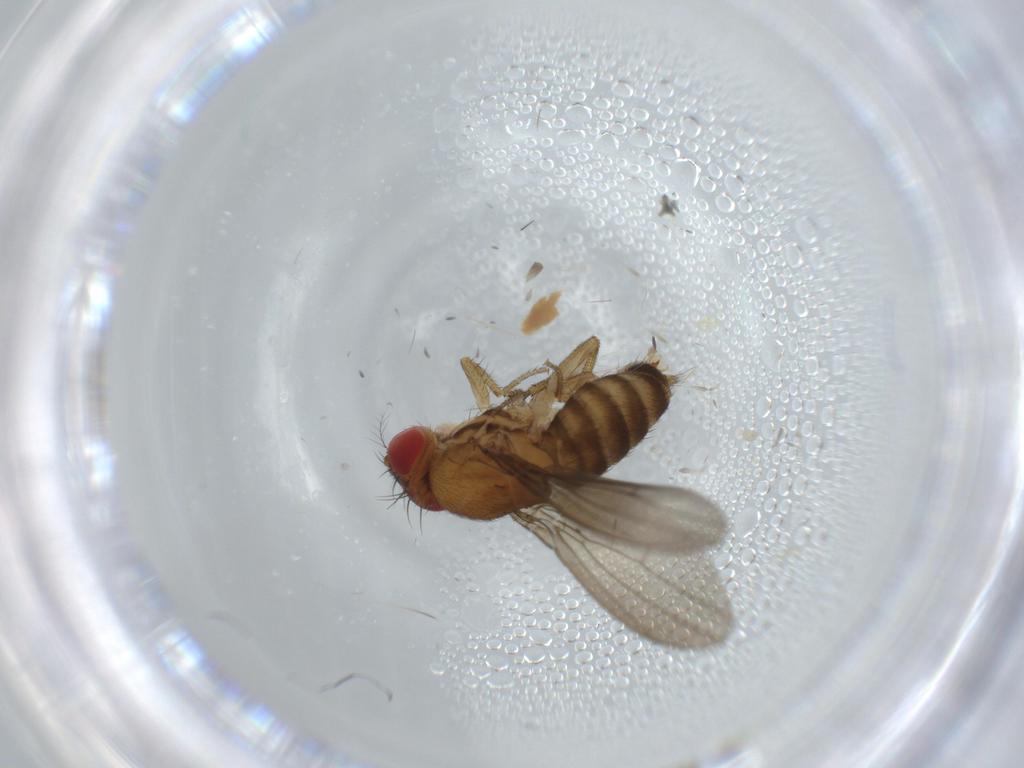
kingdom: Animalia
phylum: Arthropoda
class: Insecta
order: Diptera
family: Drosophilidae
